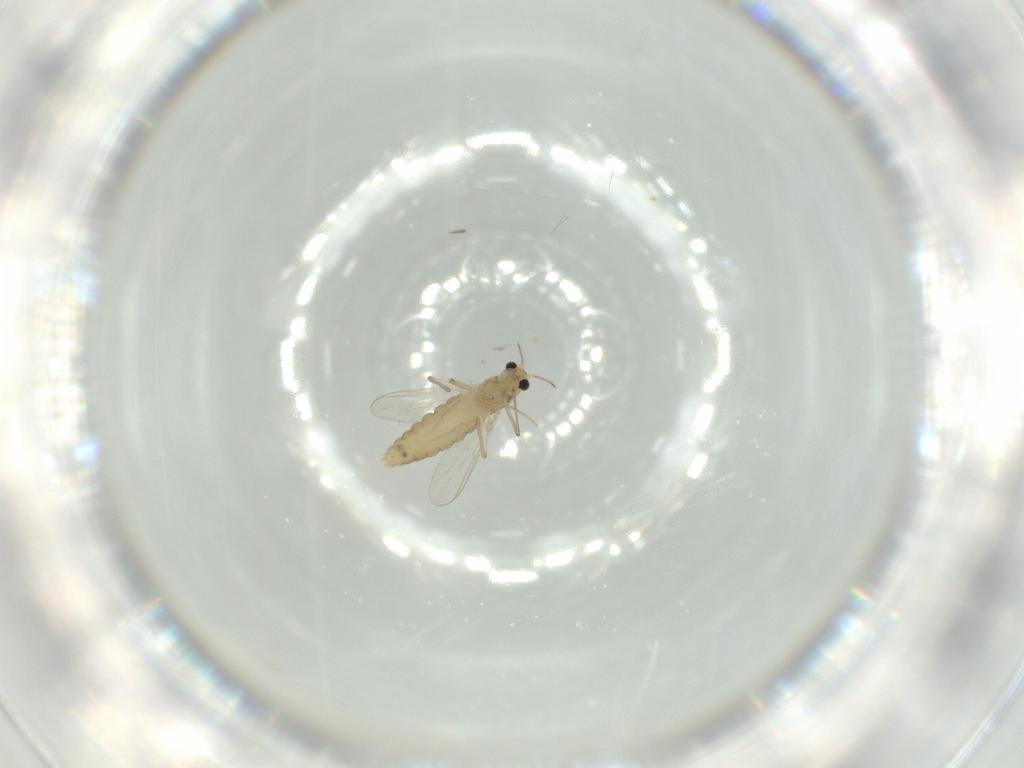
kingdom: Animalia
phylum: Arthropoda
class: Insecta
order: Diptera
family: Chironomidae
